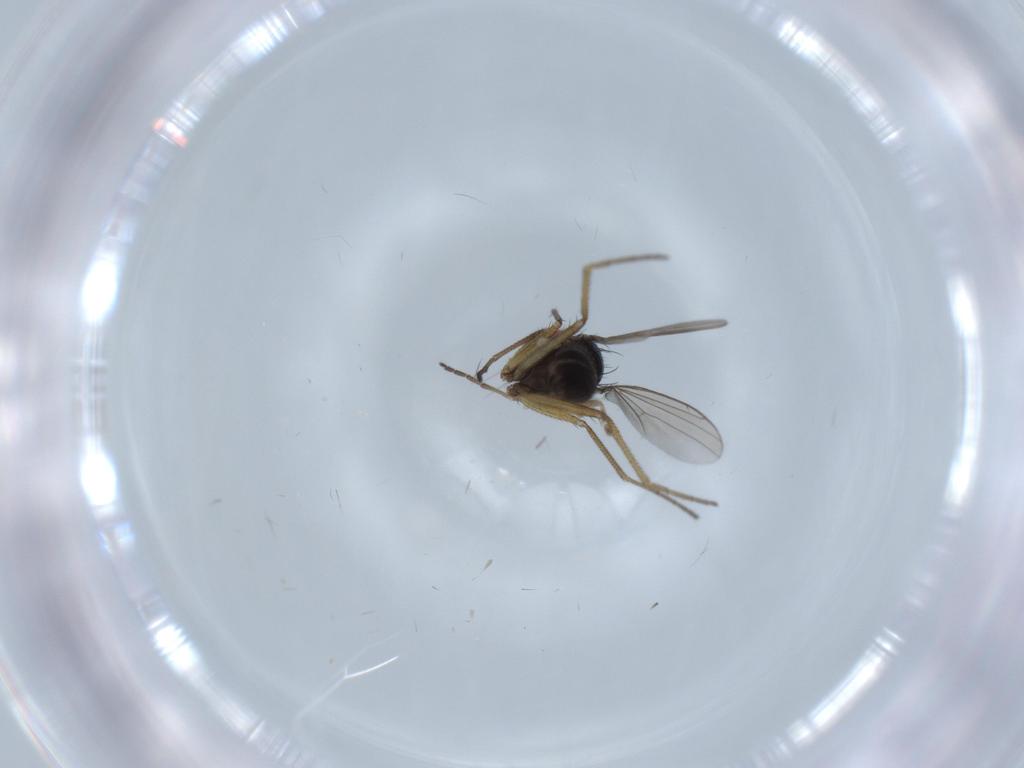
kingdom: Animalia
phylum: Arthropoda
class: Insecta
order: Diptera
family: Dolichopodidae
